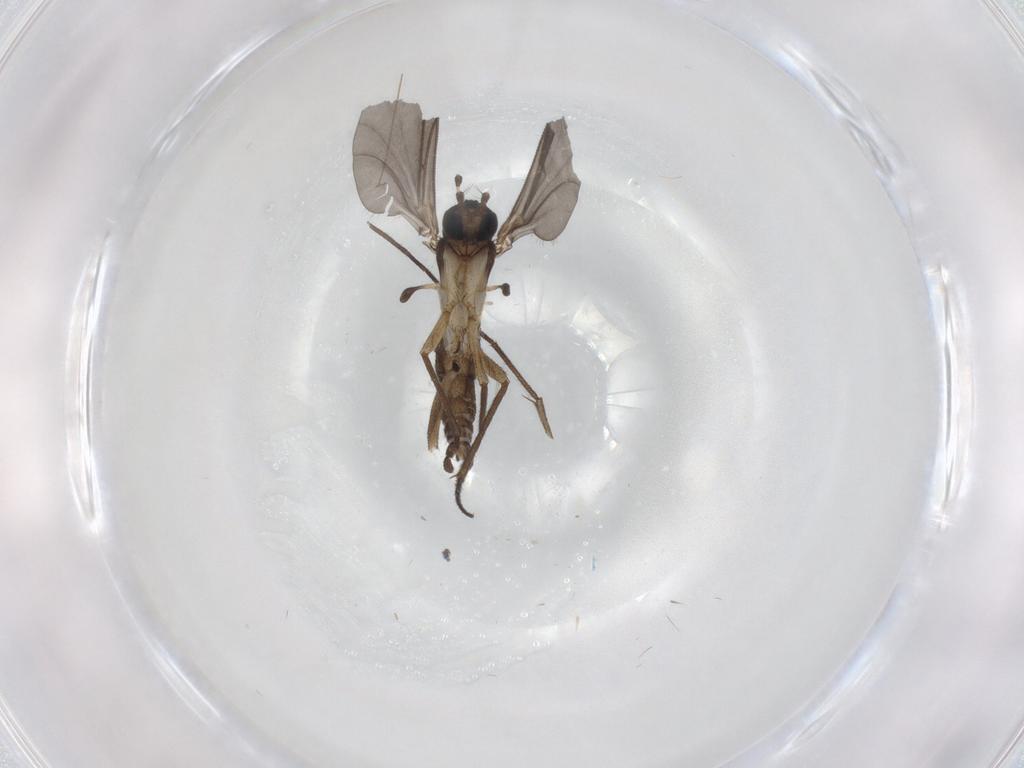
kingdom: Animalia
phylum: Arthropoda
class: Insecta
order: Diptera
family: Sciaridae
